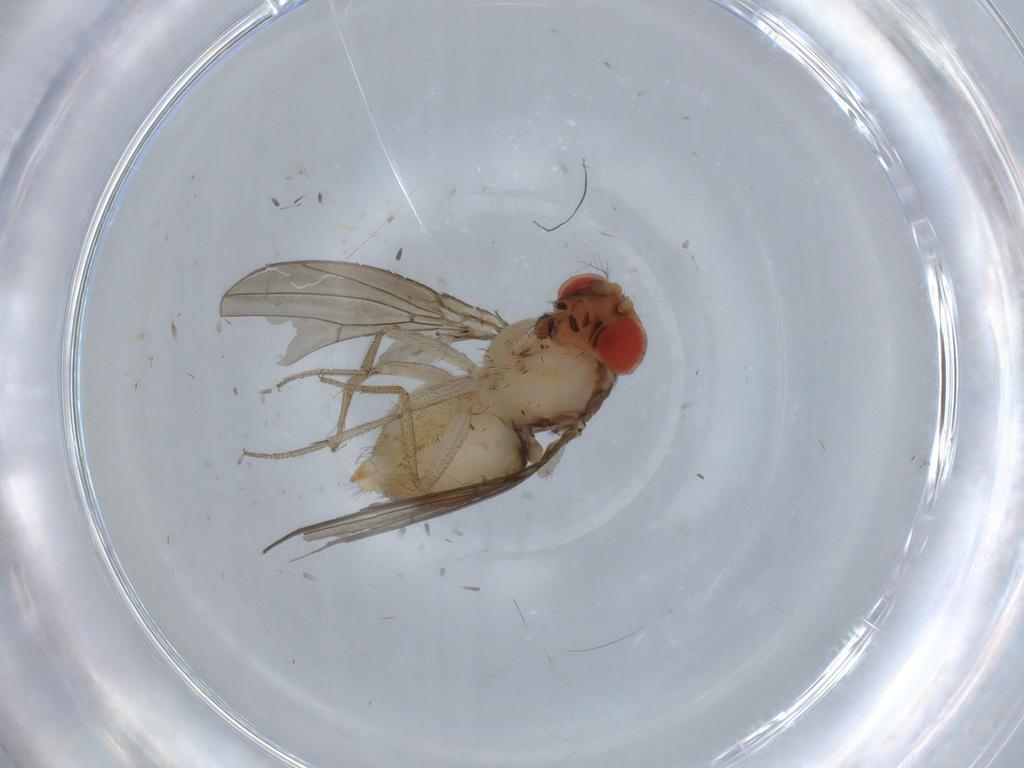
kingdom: Animalia
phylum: Arthropoda
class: Insecta
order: Diptera
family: Drosophilidae
